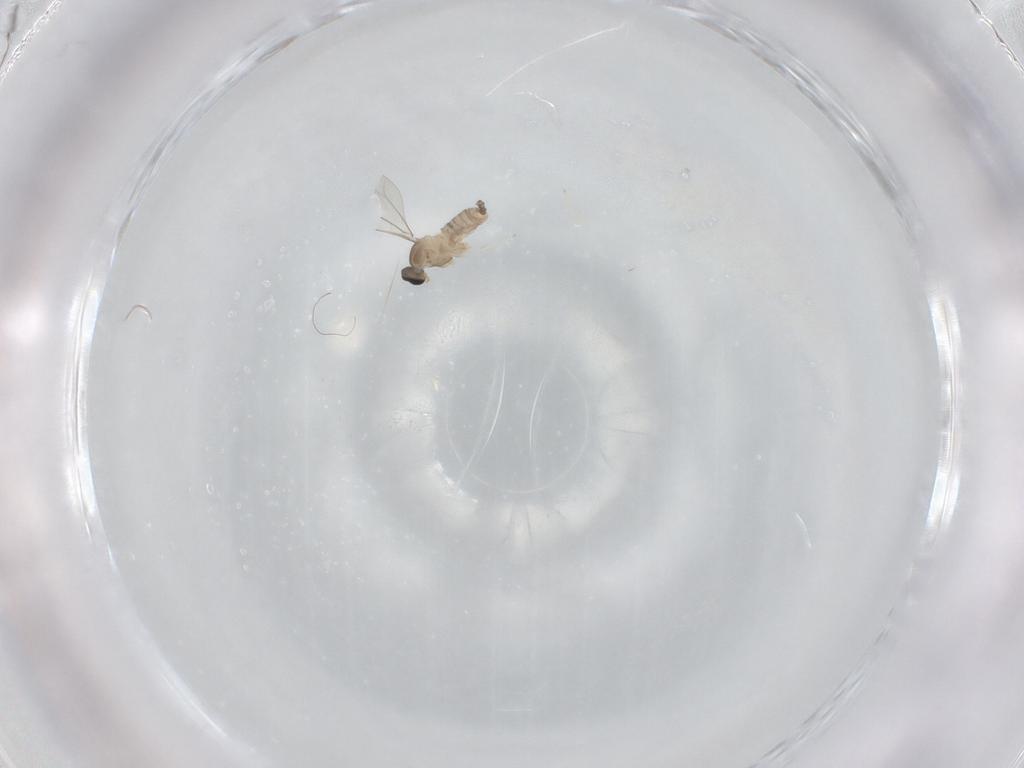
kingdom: Animalia
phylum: Arthropoda
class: Insecta
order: Diptera
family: Cecidomyiidae
